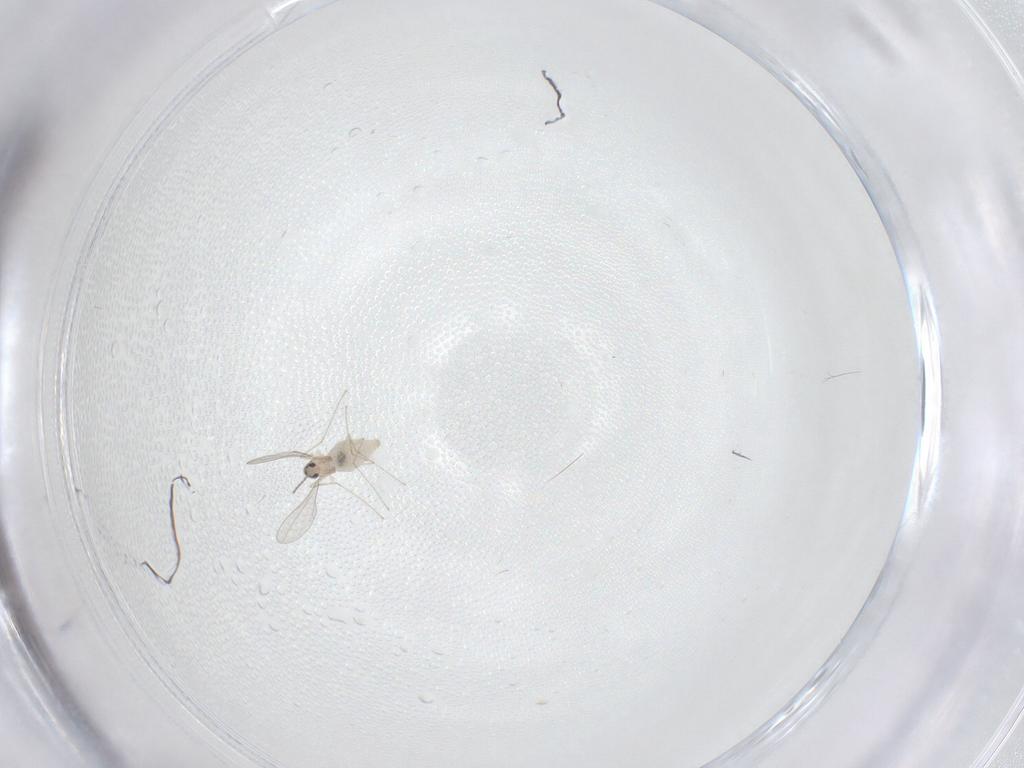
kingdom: Animalia
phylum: Arthropoda
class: Insecta
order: Diptera
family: Cecidomyiidae
